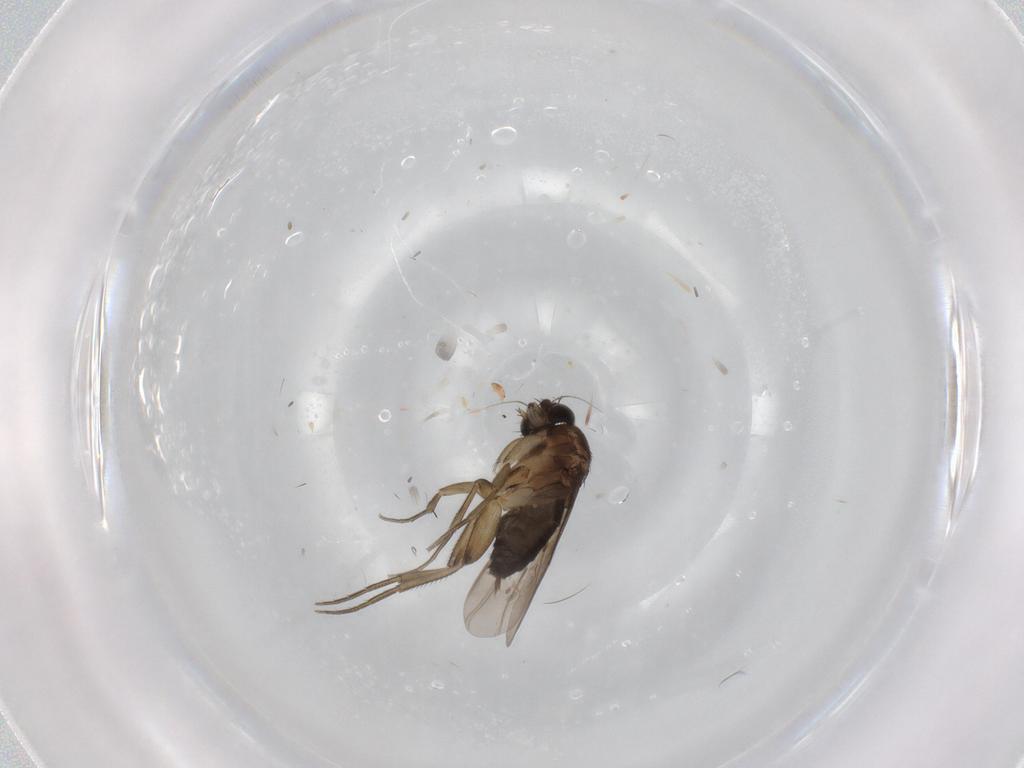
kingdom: Animalia
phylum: Arthropoda
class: Insecta
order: Diptera
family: Phoridae
